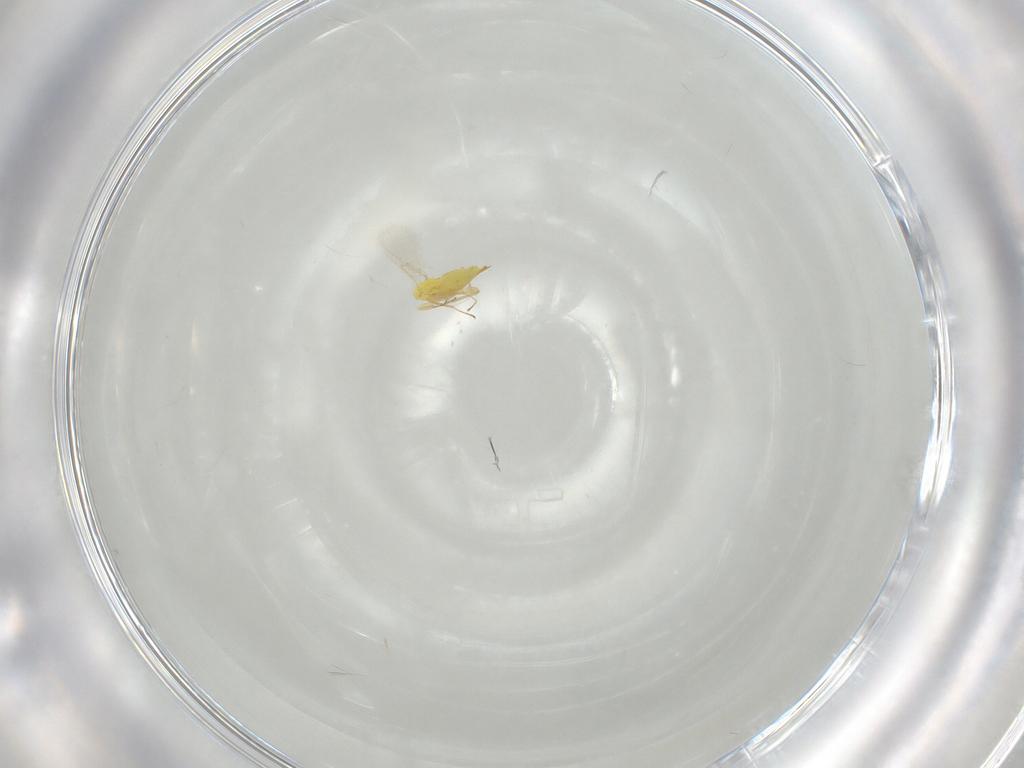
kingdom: Animalia
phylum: Arthropoda
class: Insecta
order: Hymenoptera
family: Aphelinidae
